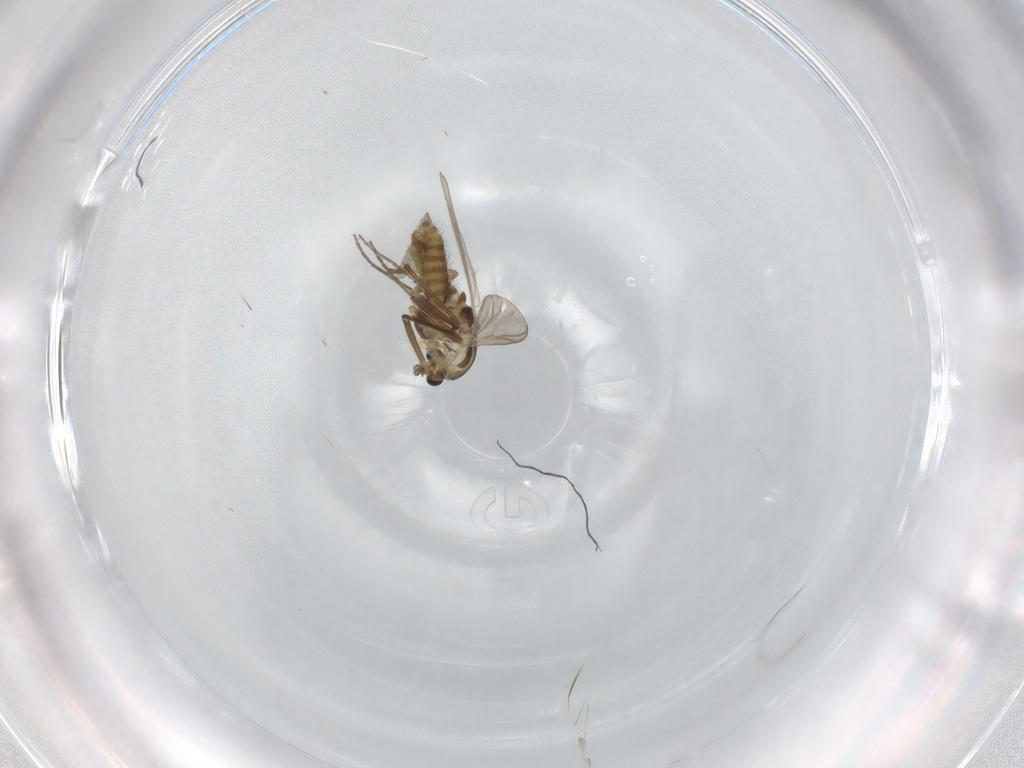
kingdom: Animalia
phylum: Arthropoda
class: Insecta
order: Diptera
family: Chironomidae
